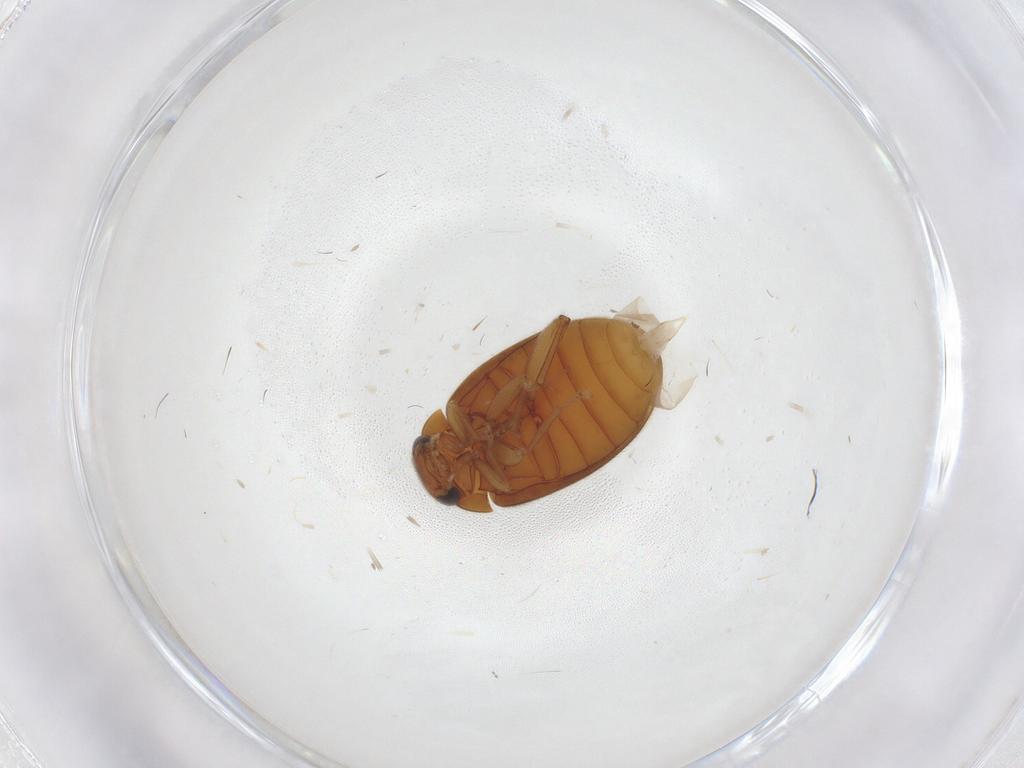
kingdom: Animalia
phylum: Arthropoda
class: Insecta
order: Coleoptera
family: Scirtidae
